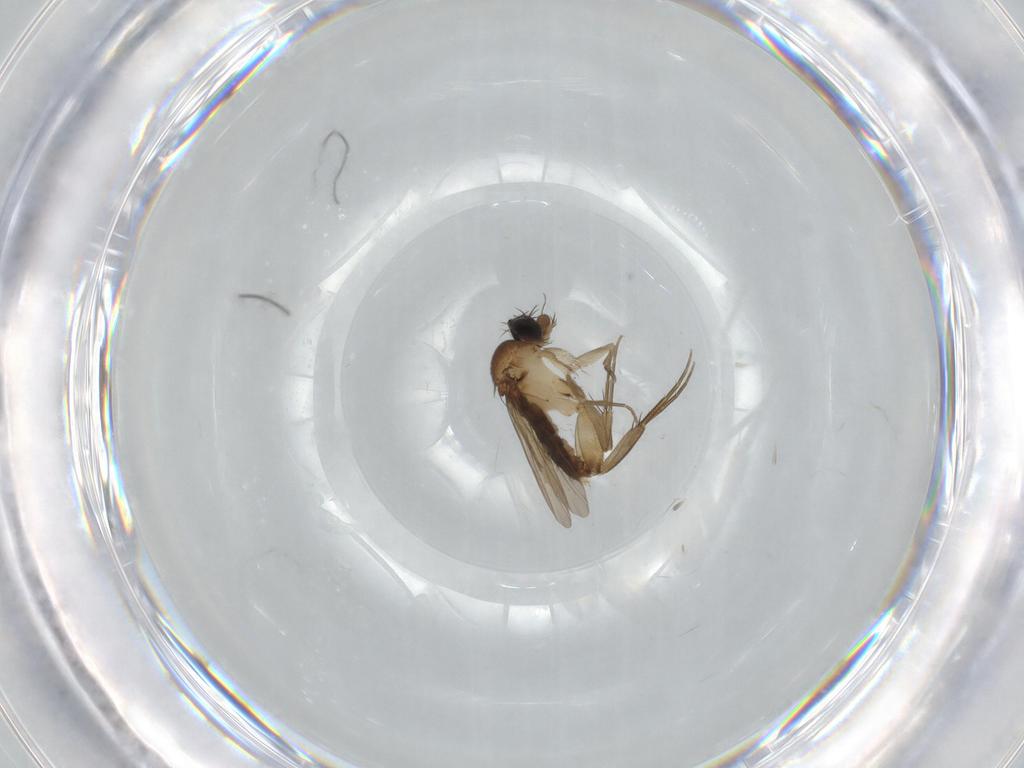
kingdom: Animalia
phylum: Arthropoda
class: Insecta
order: Diptera
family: Phoridae
